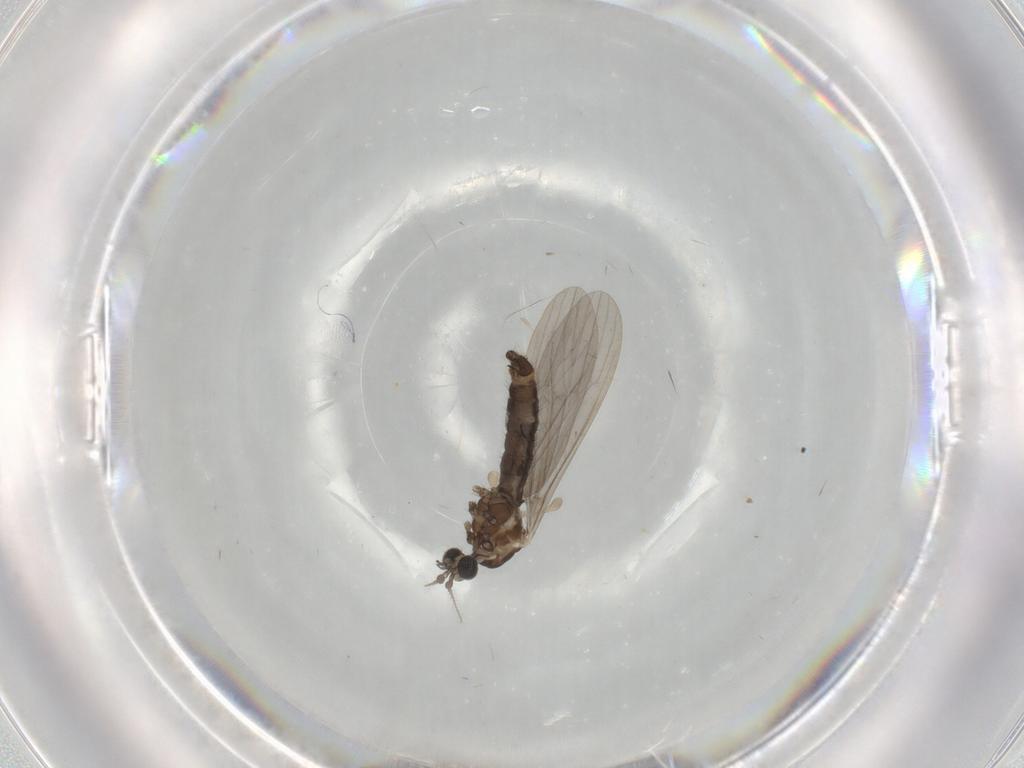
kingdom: Animalia
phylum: Arthropoda
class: Insecta
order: Diptera
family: Limoniidae
